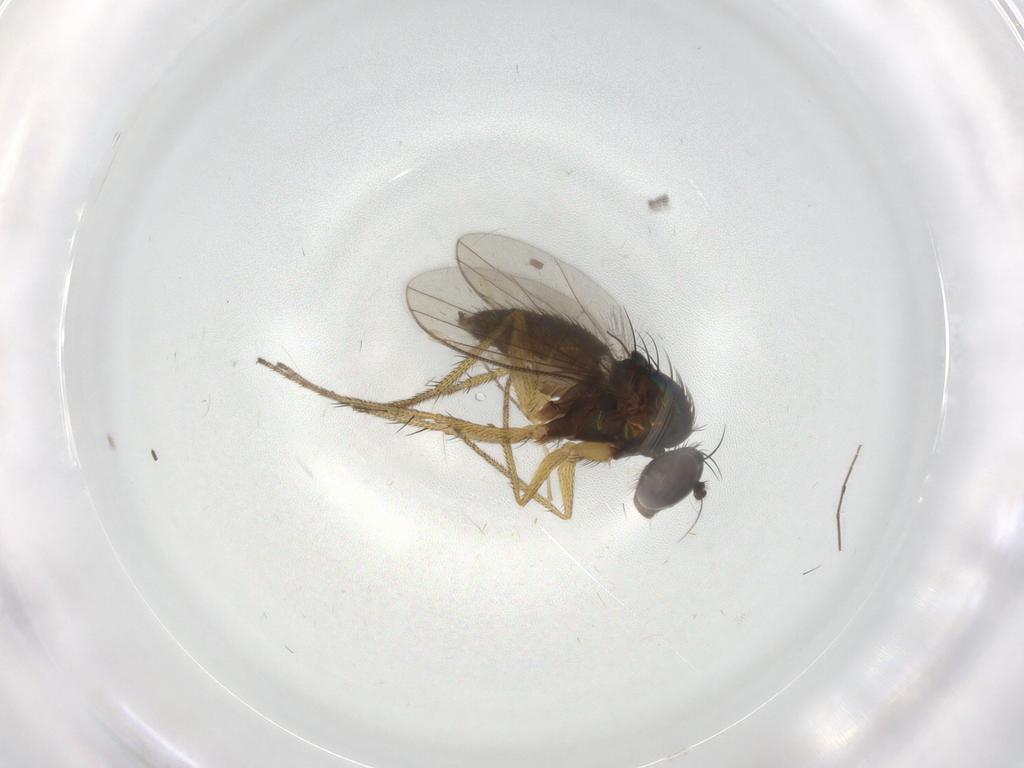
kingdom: Animalia
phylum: Arthropoda
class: Insecta
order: Diptera
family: Chironomidae
